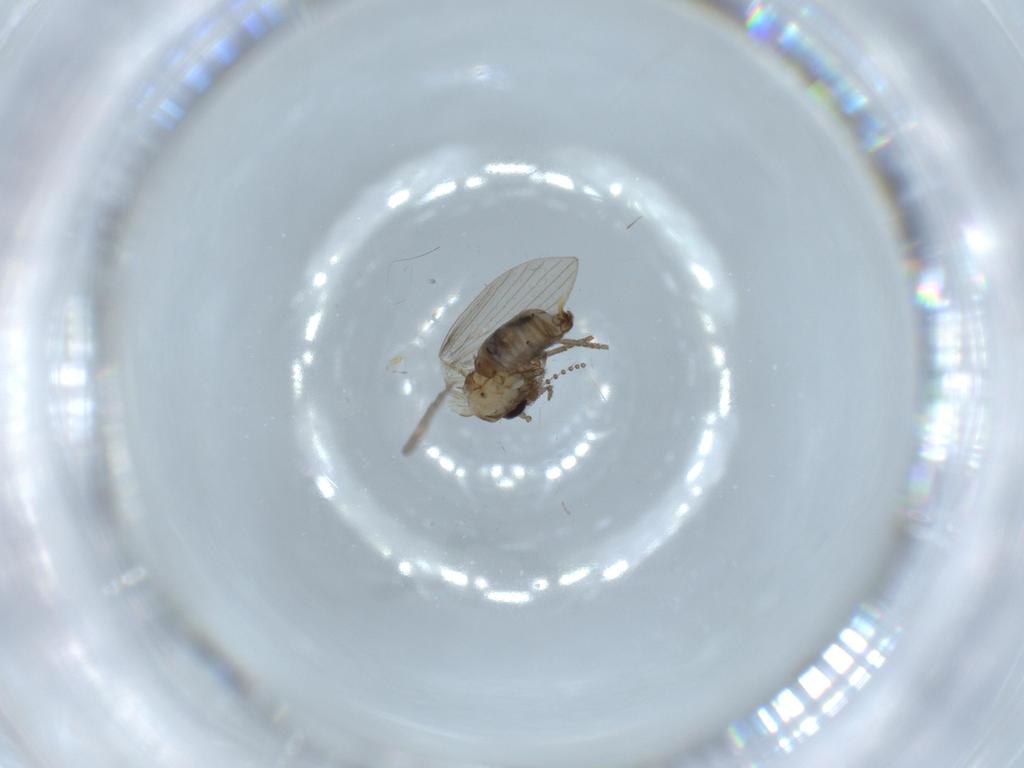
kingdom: Animalia
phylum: Arthropoda
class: Insecta
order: Diptera
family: Psychodidae
